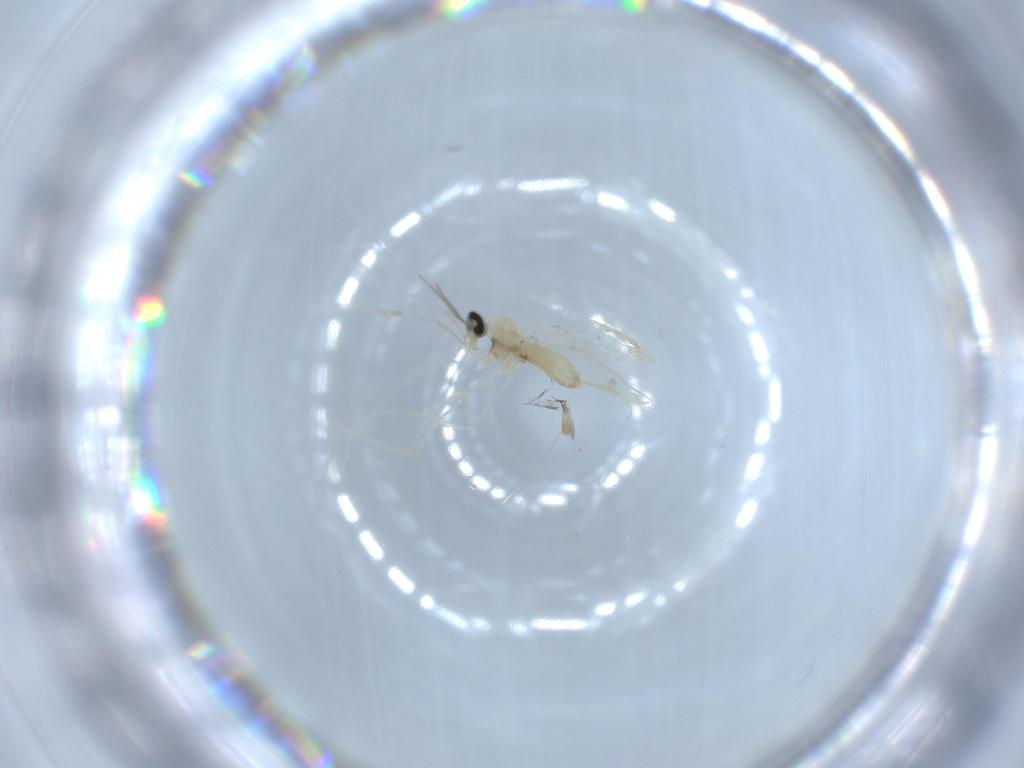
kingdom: Animalia
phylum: Arthropoda
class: Insecta
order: Diptera
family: Cecidomyiidae
